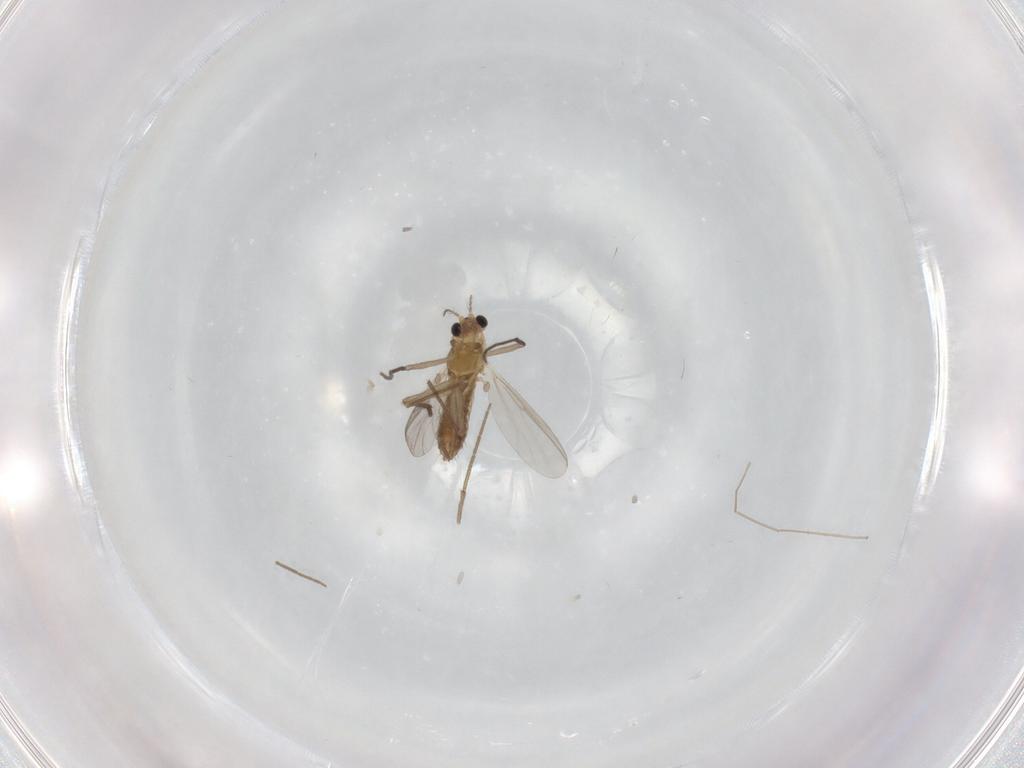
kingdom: Animalia
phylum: Arthropoda
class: Insecta
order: Diptera
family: Chironomidae
